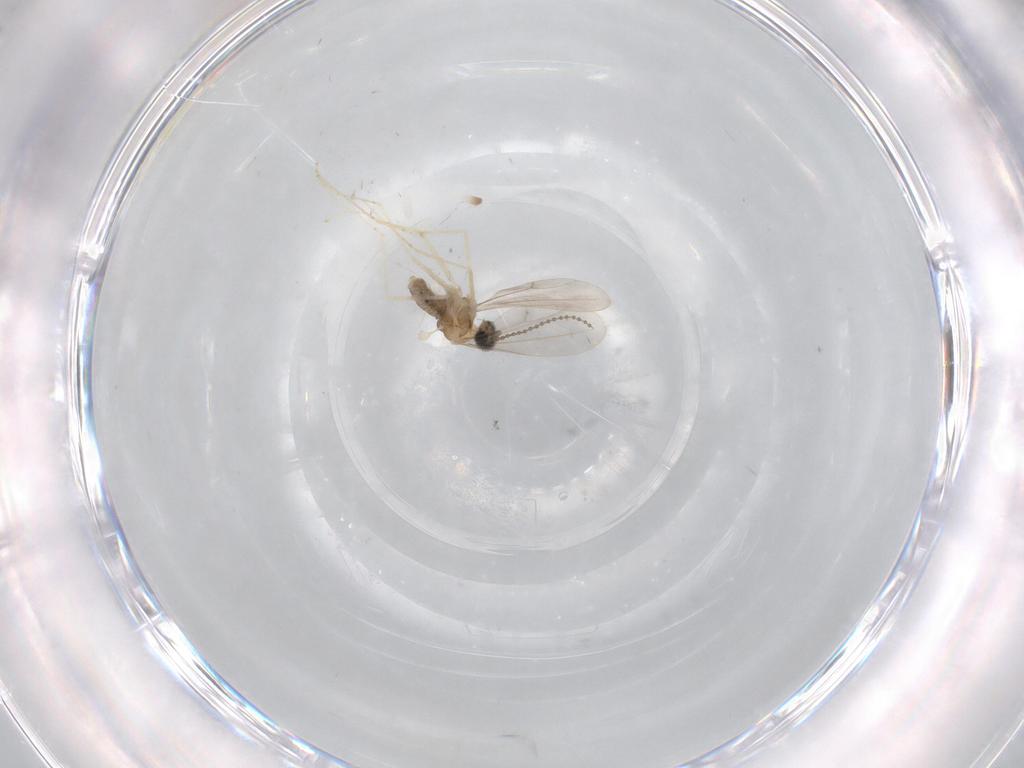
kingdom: Animalia
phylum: Arthropoda
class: Insecta
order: Diptera
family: Cecidomyiidae
